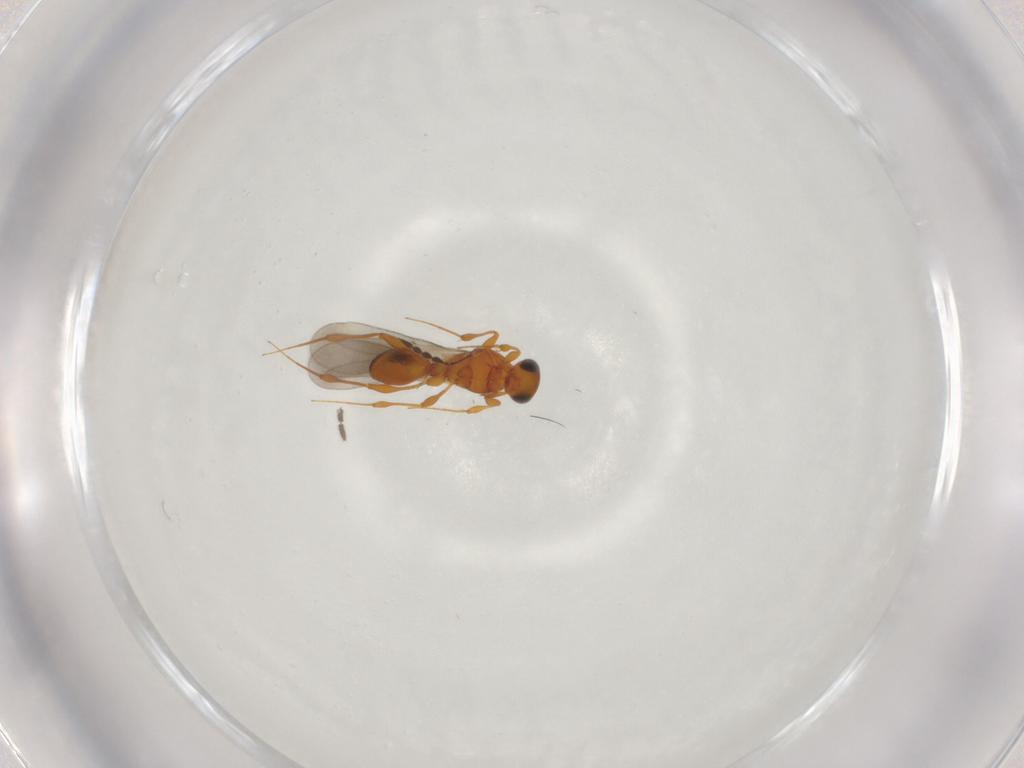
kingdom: Animalia
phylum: Arthropoda
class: Insecta
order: Hymenoptera
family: Platygastridae
